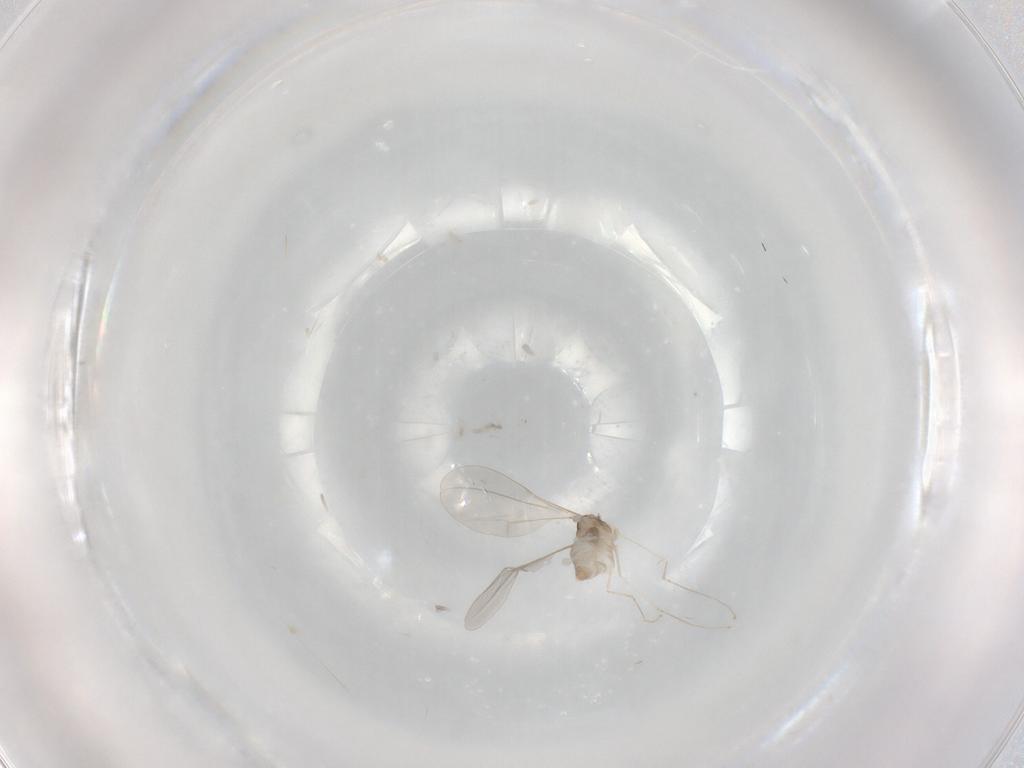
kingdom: Animalia
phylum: Arthropoda
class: Insecta
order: Diptera
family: Cecidomyiidae
